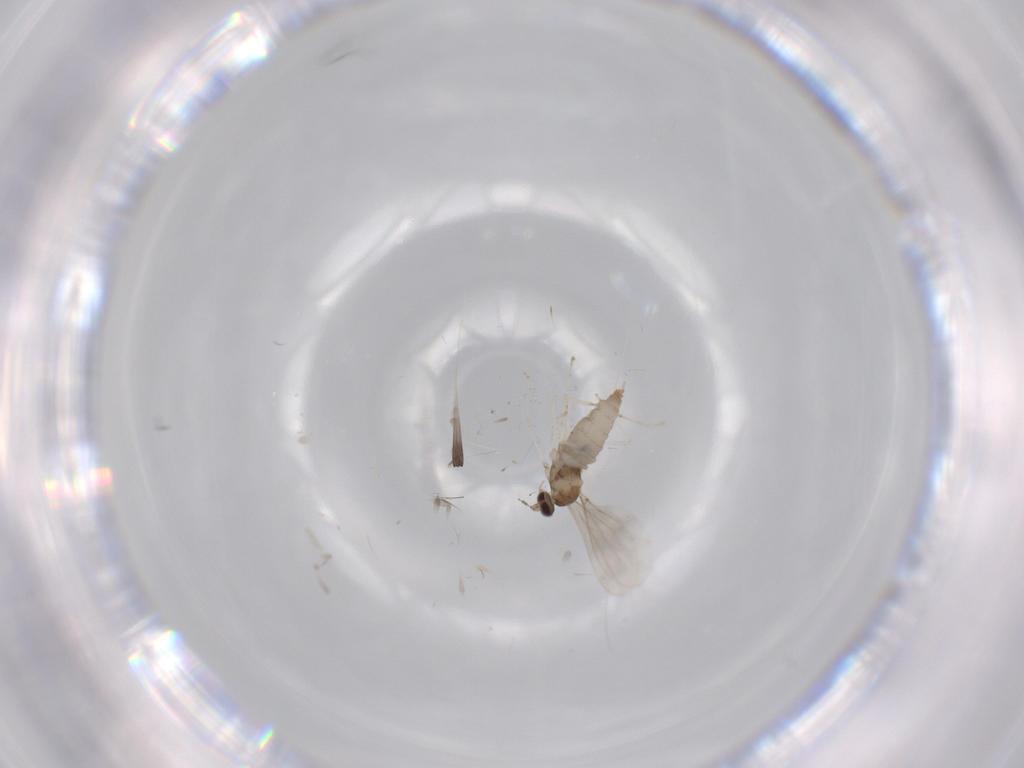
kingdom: Animalia
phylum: Arthropoda
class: Insecta
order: Diptera
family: Cecidomyiidae
